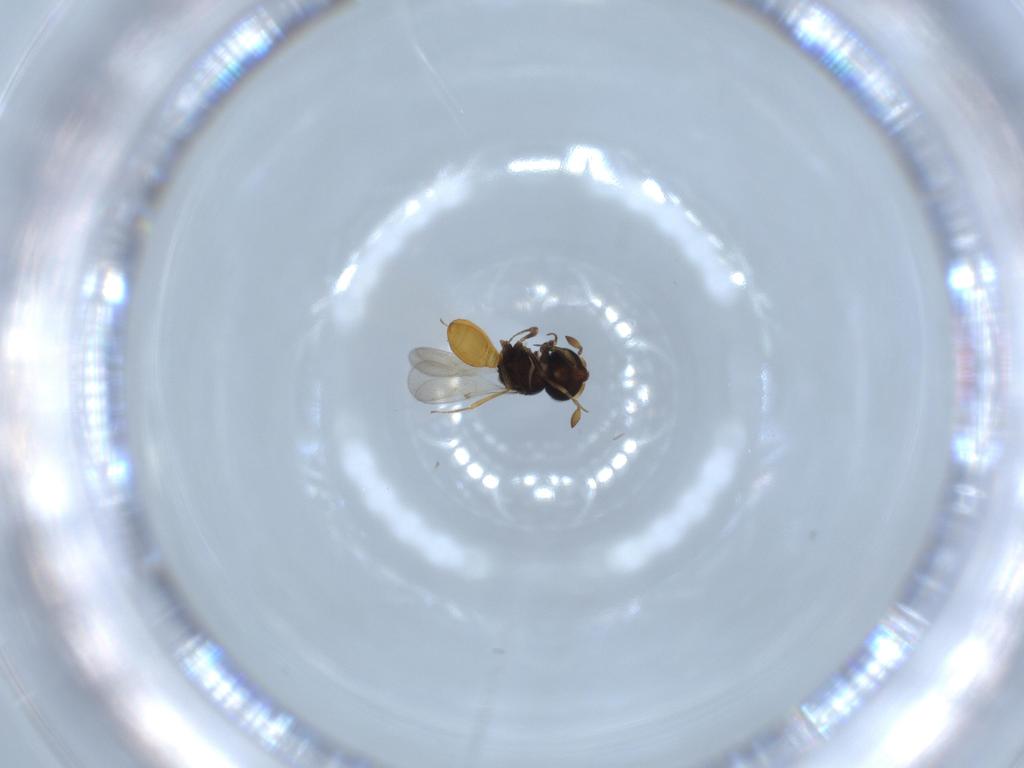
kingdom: Animalia
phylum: Arthropoda
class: Insecta
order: Hymenoptera
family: Scelionidae
